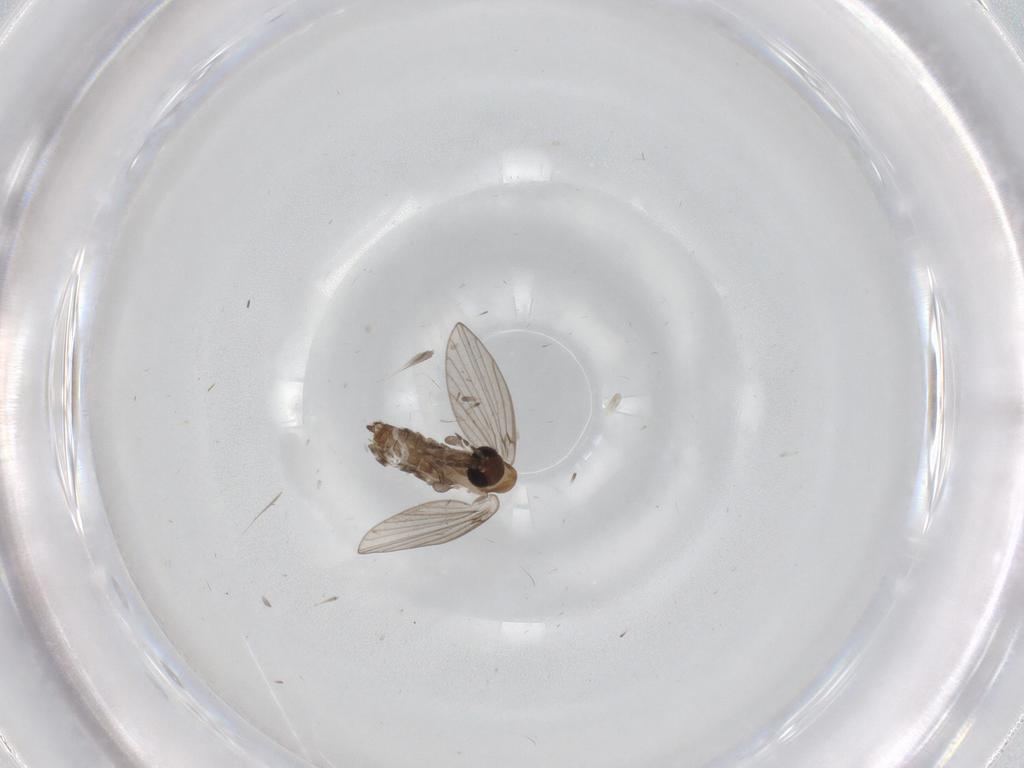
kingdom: Animalia
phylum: Arthropoda
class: Insecta
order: Diptera
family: Psychodidae
